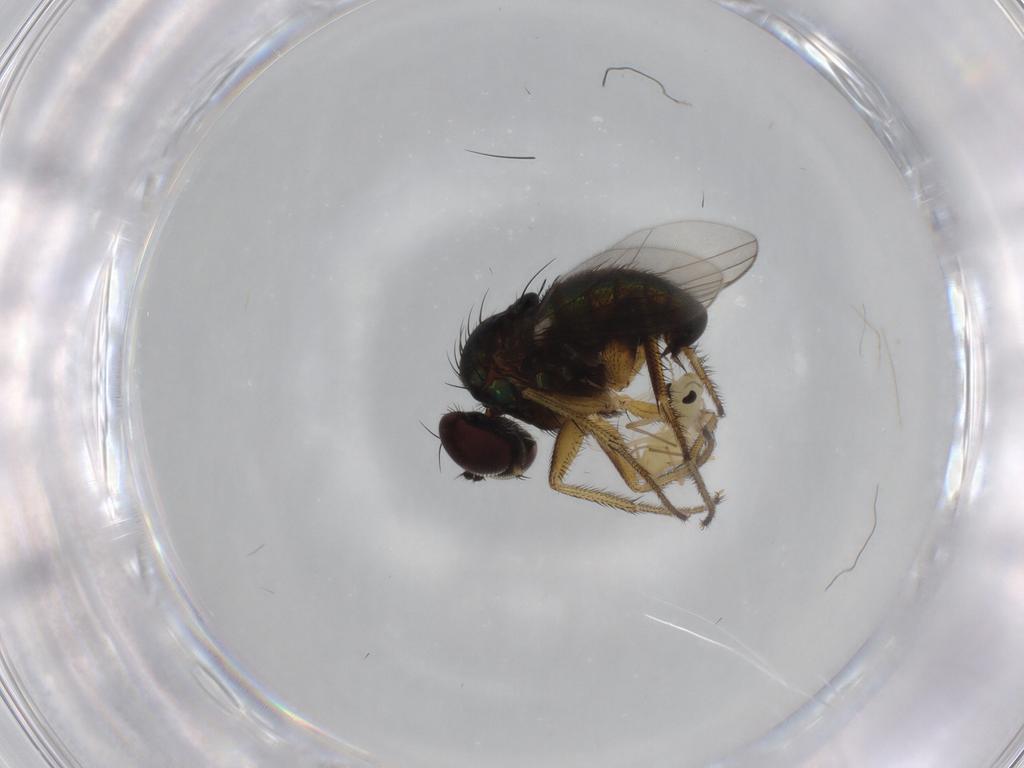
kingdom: Animalia
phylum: Arthropoda
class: Insecta
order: Diptera
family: Dolichopodidae
